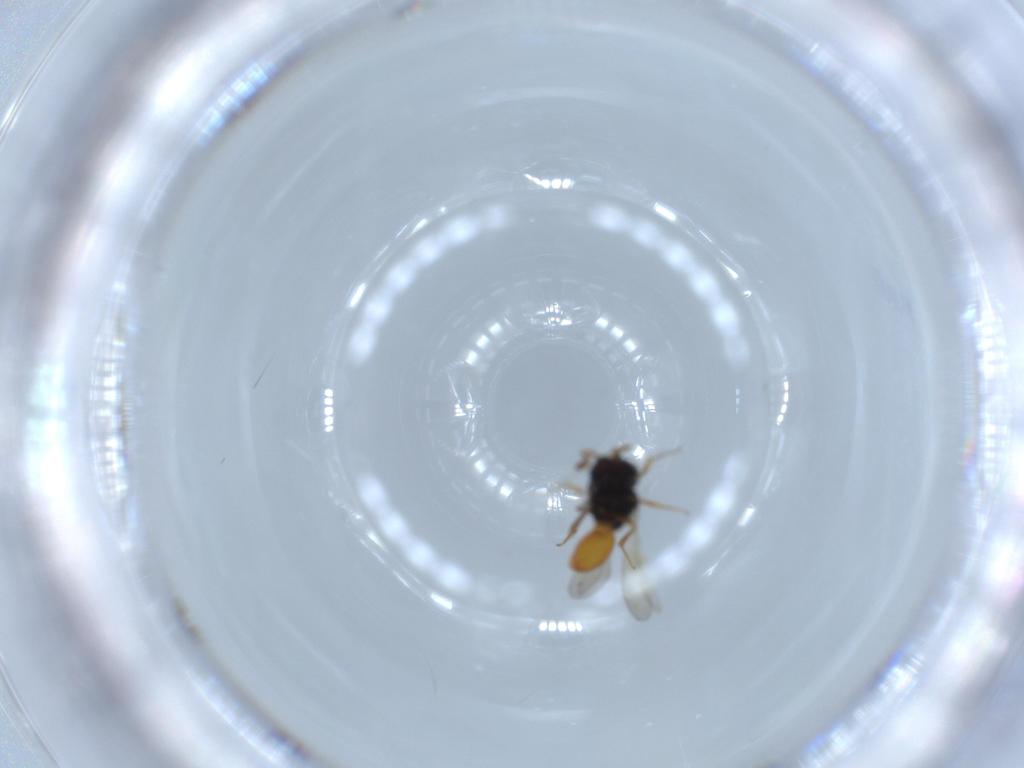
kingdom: Animalia
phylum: Arthropoda
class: Insecta
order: Hymenoptera
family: Scelionidae
